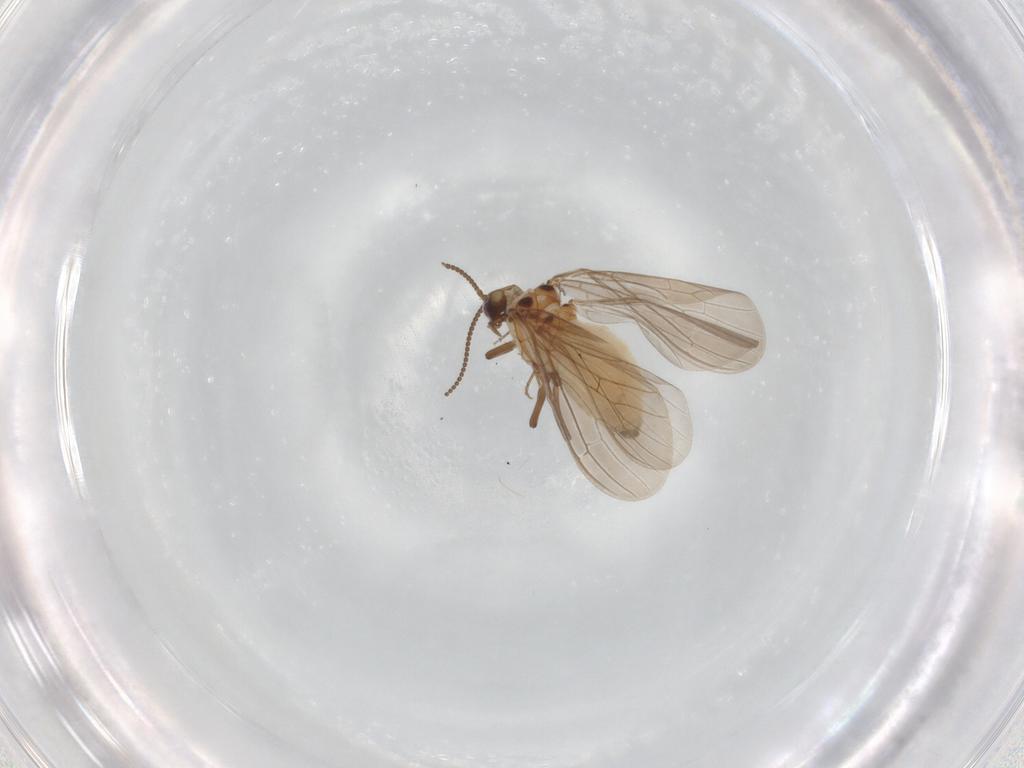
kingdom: Animalia
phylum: Arthropoda
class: Insecta
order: Neuroptera
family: Coniopterygidae
